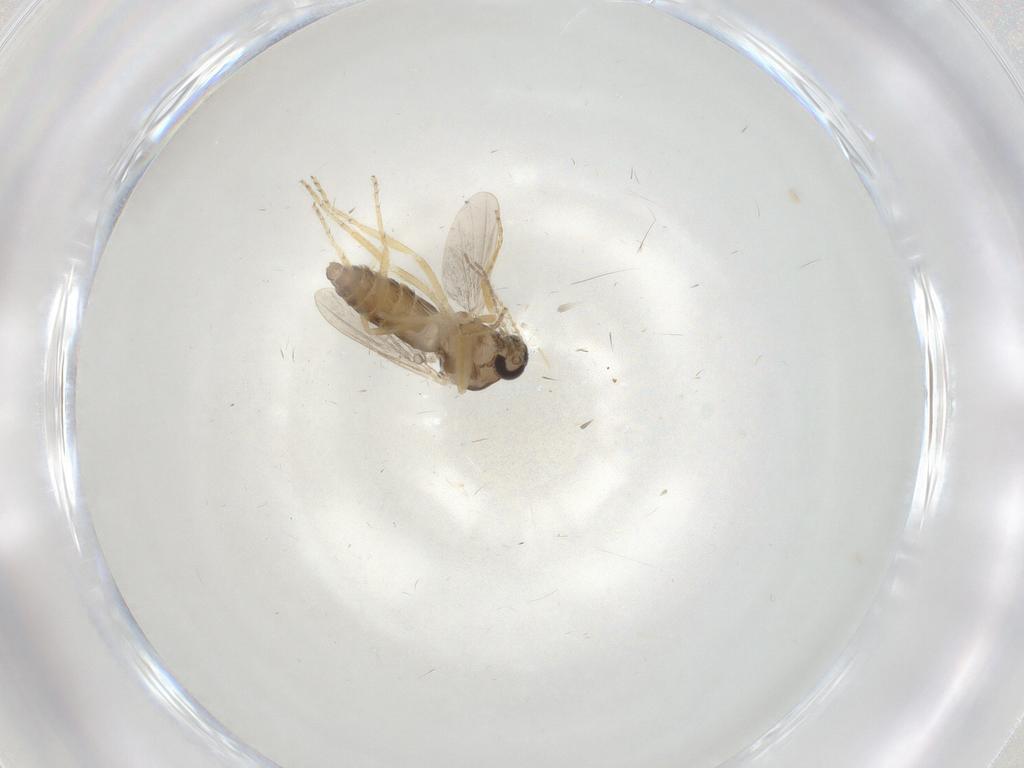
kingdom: Animalia
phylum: Arthropoda
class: Insecta
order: Diptera
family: Ceratopogonidae
